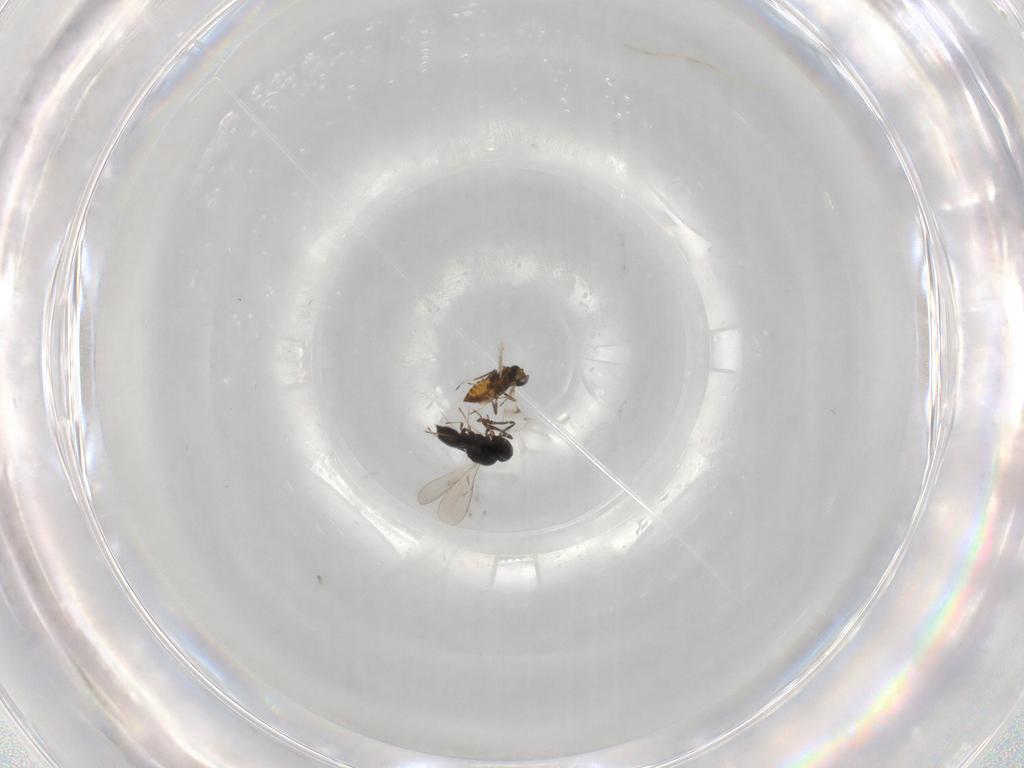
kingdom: Animalia
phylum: Arthropoda
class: Insecta
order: Hymenoptera
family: Scelionidae
